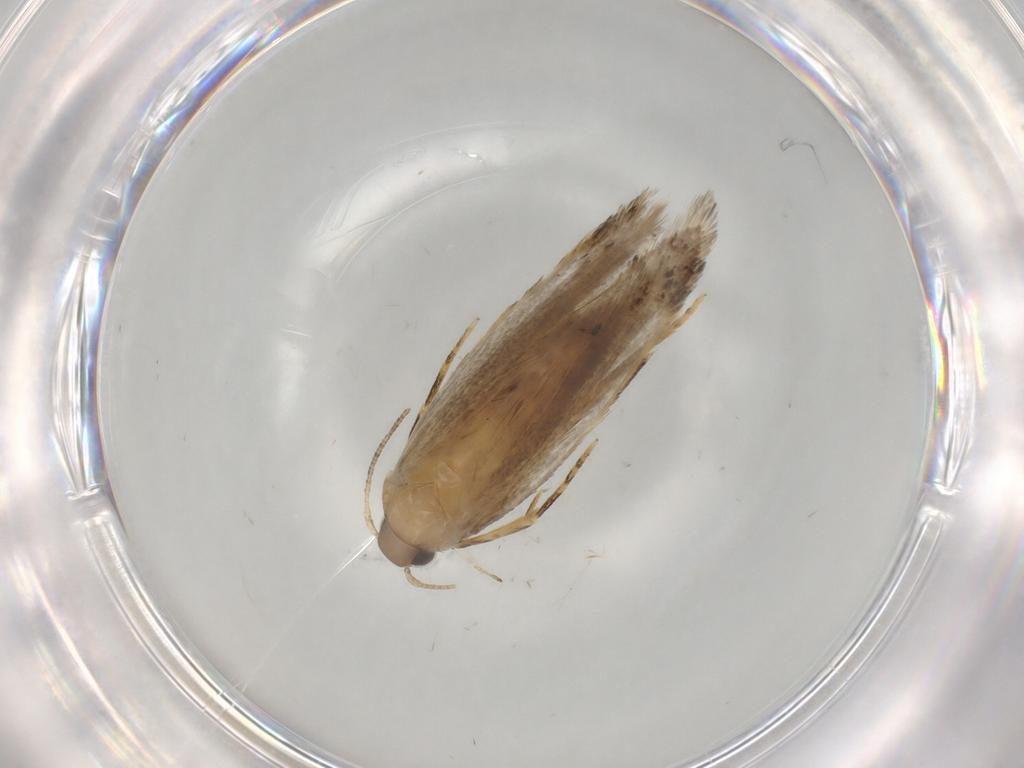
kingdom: Animalia
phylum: Arthropoda
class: Insecta
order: Lepidoptera
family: Autostichidae
